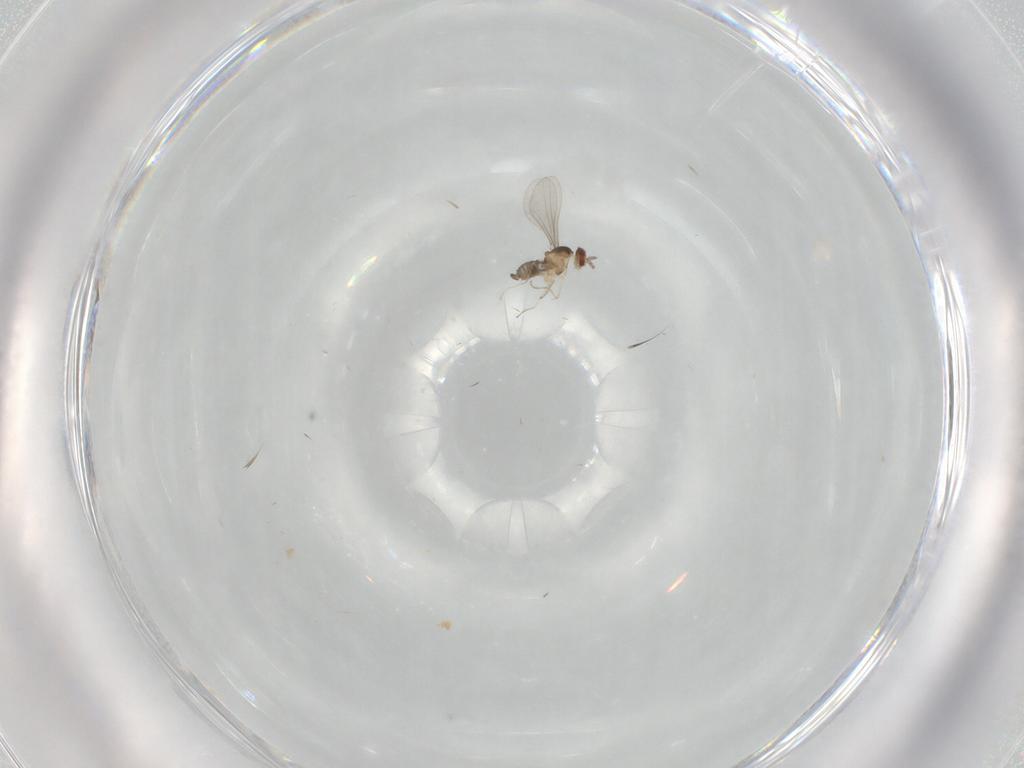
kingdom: Animalia
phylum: Arthropoda
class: Insecta
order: Diptera
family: Cecidomyiidae
